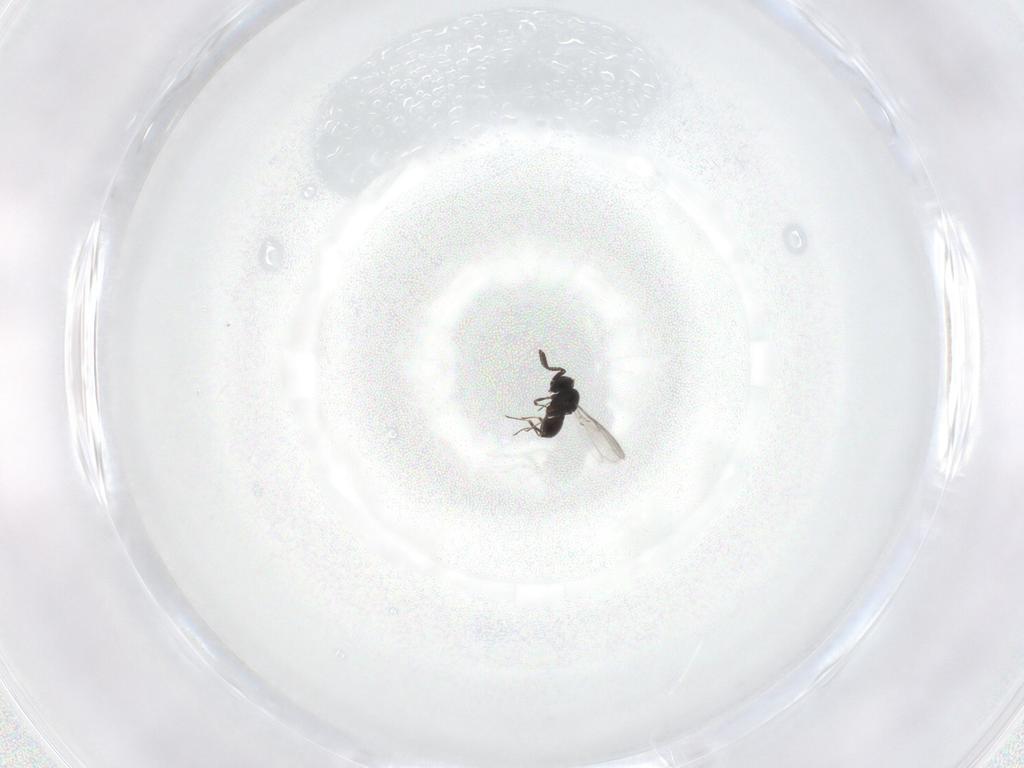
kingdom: Animalia
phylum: Arthropoda
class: Insecta
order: Hymenoptera
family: Scelionidae
